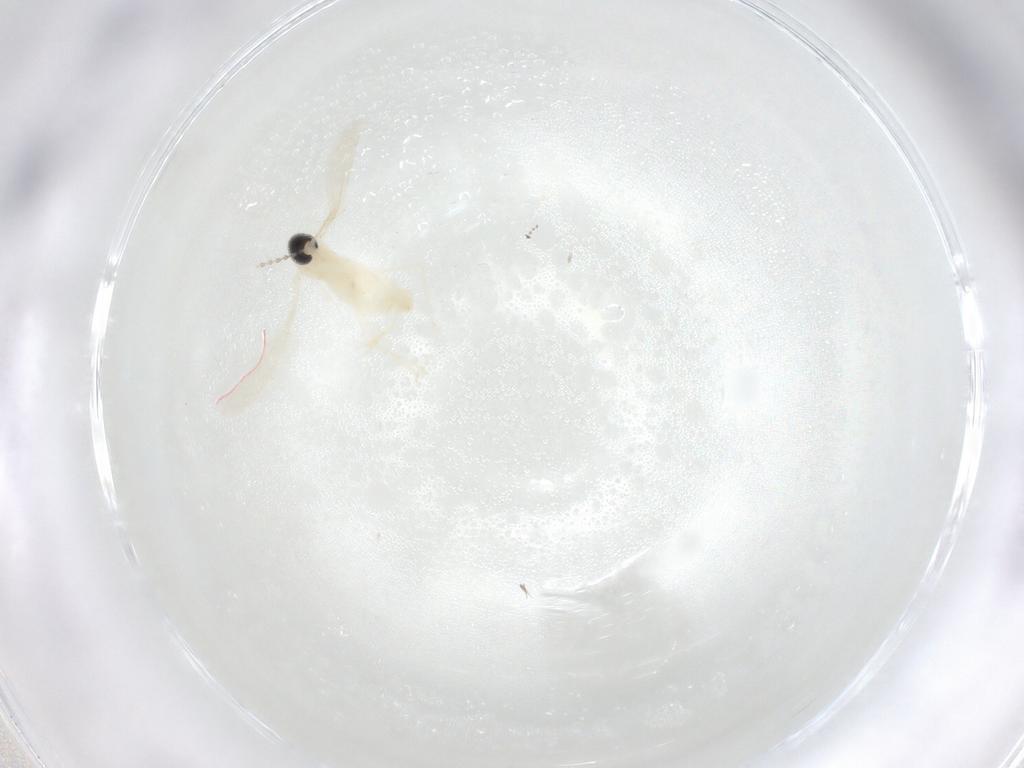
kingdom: Animalia
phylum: Arthropoda
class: Insecta
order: Diptera
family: Cecidomyiidae
